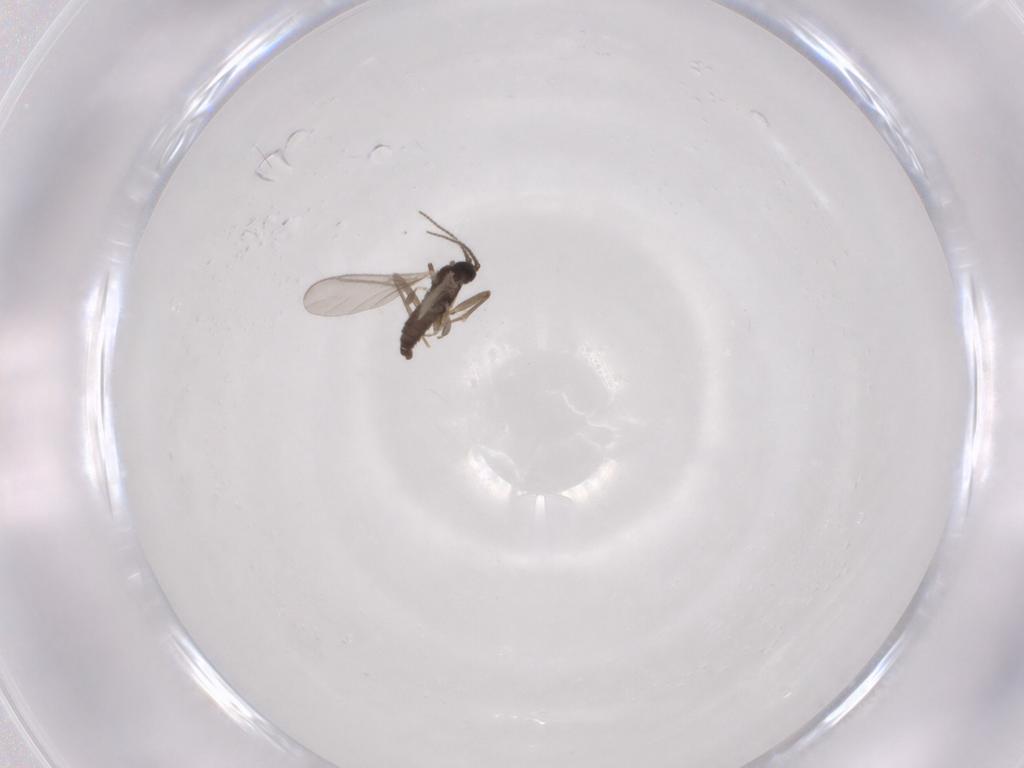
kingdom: Animalia
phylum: Arthropoda
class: Insecta
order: Diptera
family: Sciaridae
